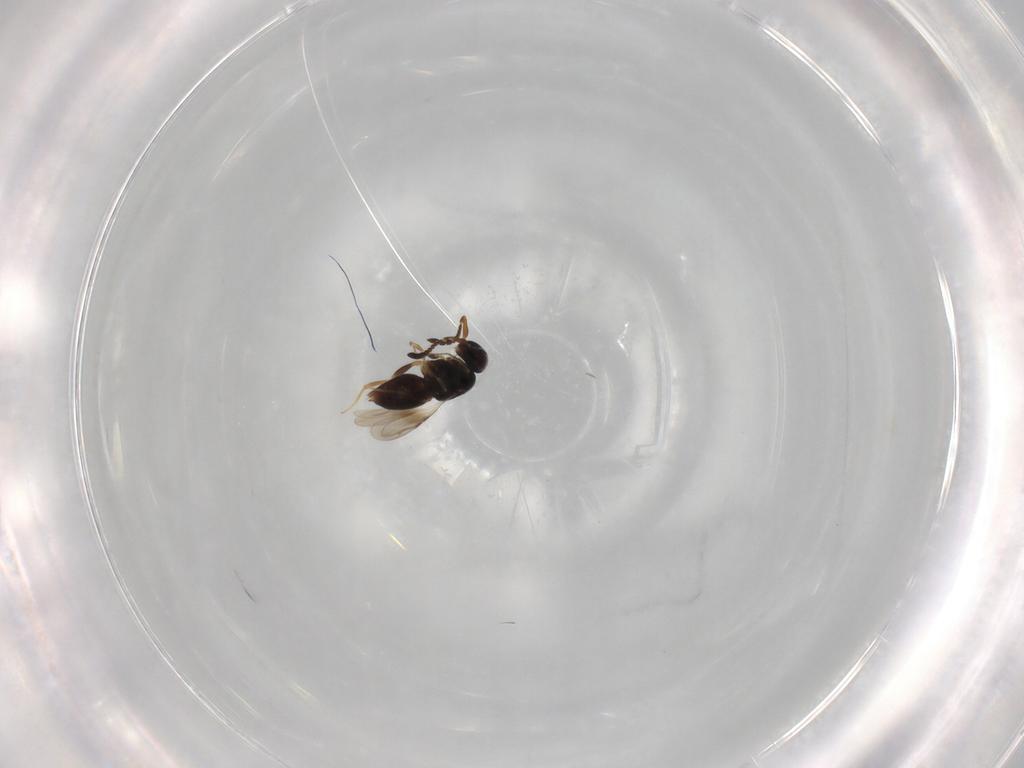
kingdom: Animalia
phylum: Arthropoda
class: Insecta
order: Hymenoptera
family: Ceraphronidae
